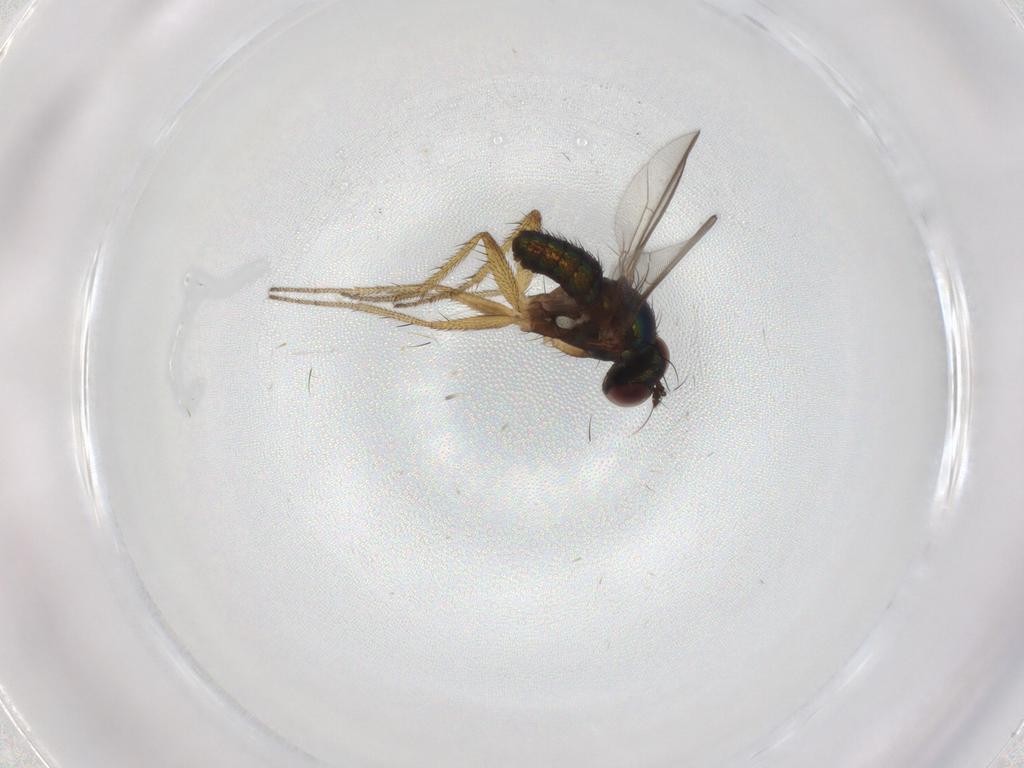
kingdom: Animalia
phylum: Arthropoda
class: Insecta
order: Diptera
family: Dolichopodidae
